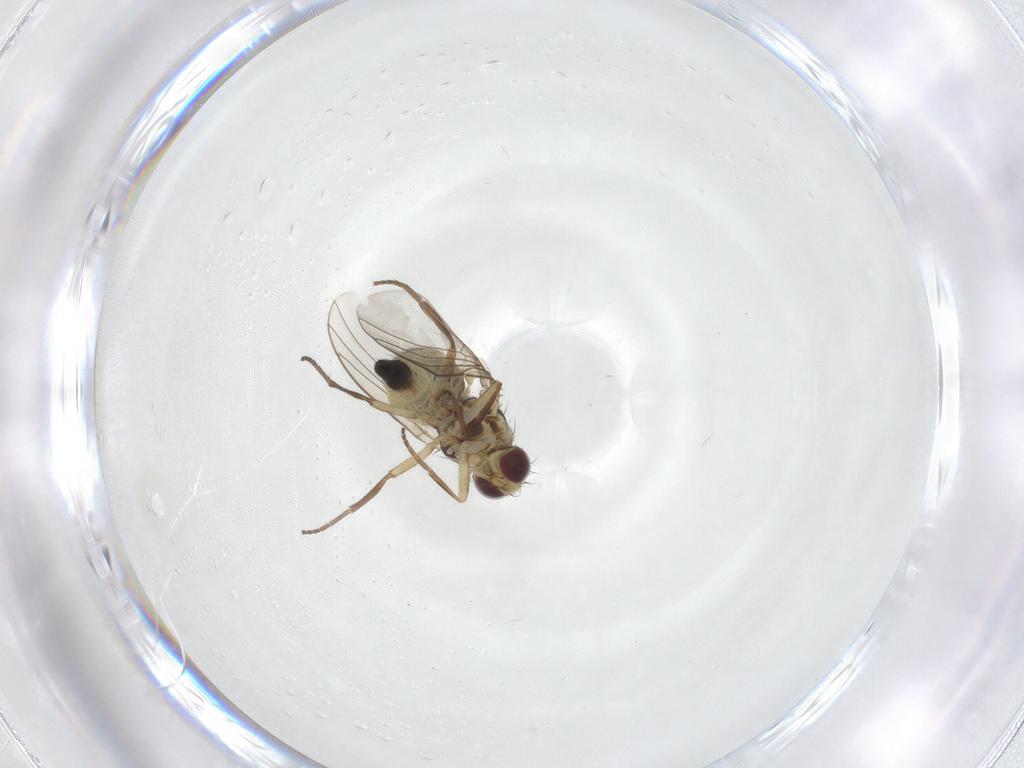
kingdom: Animalia
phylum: Arthropoda
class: Insecta
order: Diptera
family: Agromyzidae
